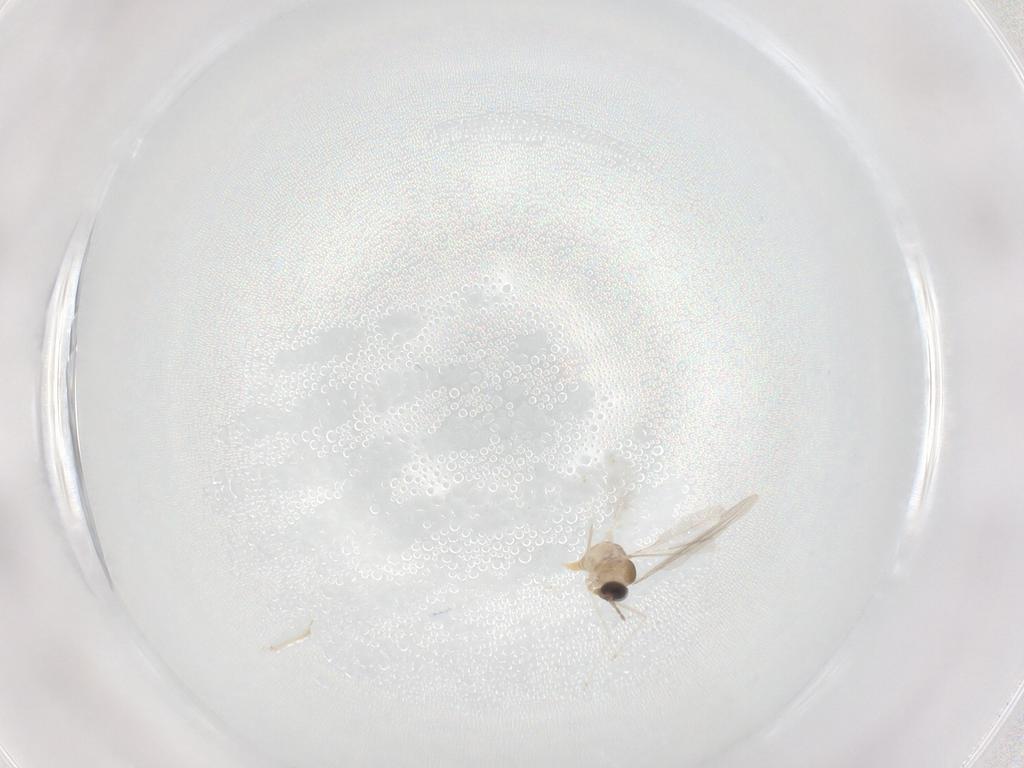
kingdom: Animalia
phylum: Arthropoda
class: Insecta
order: Diptera
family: Cecidomyiidae
